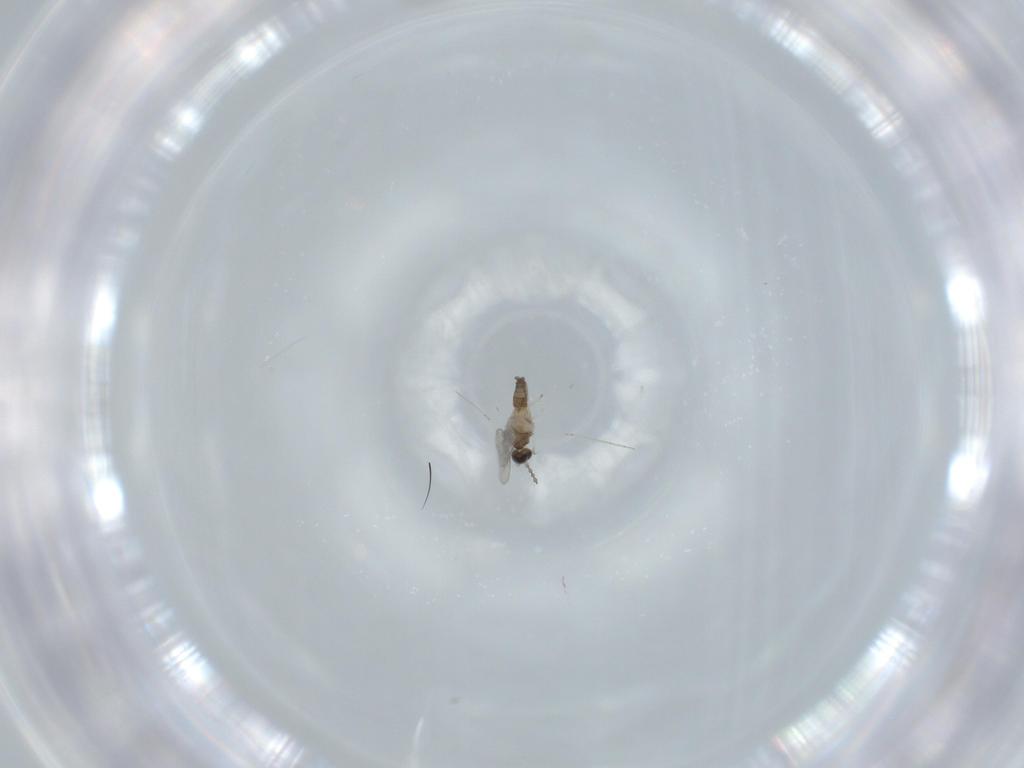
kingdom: Animalia
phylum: Arthropoda
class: Insecta
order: Diptera
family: Cecidomyiidae
